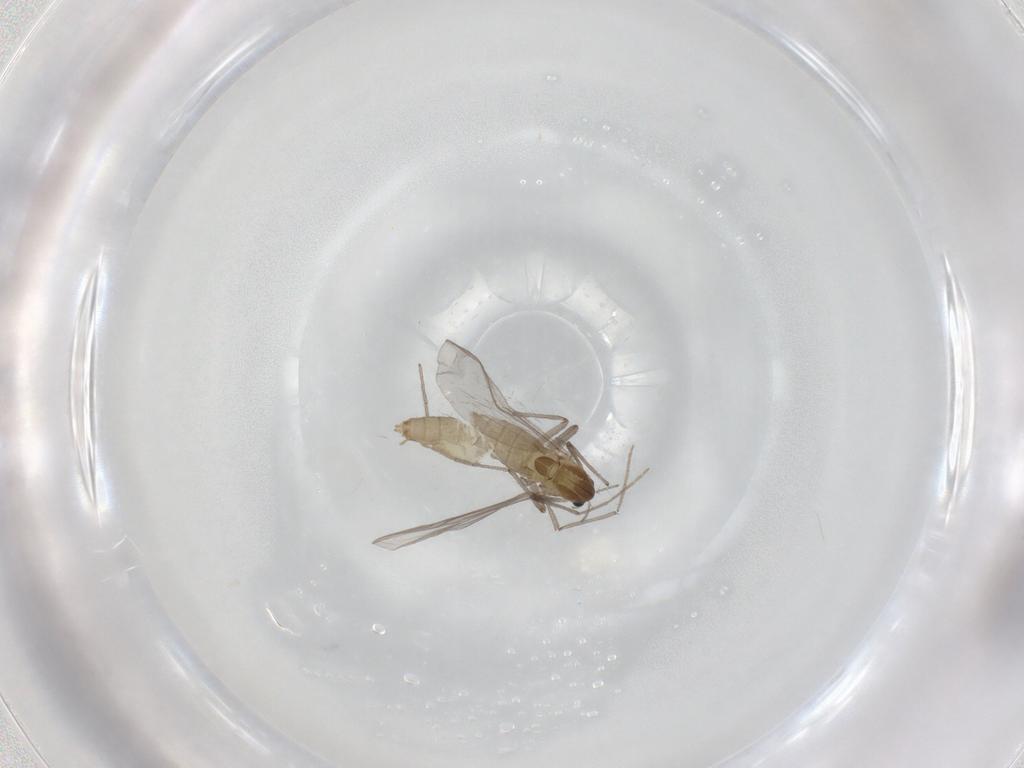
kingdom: Animalia
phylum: Arthropoda
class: Insecta
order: Diptera
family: Chironomidae
